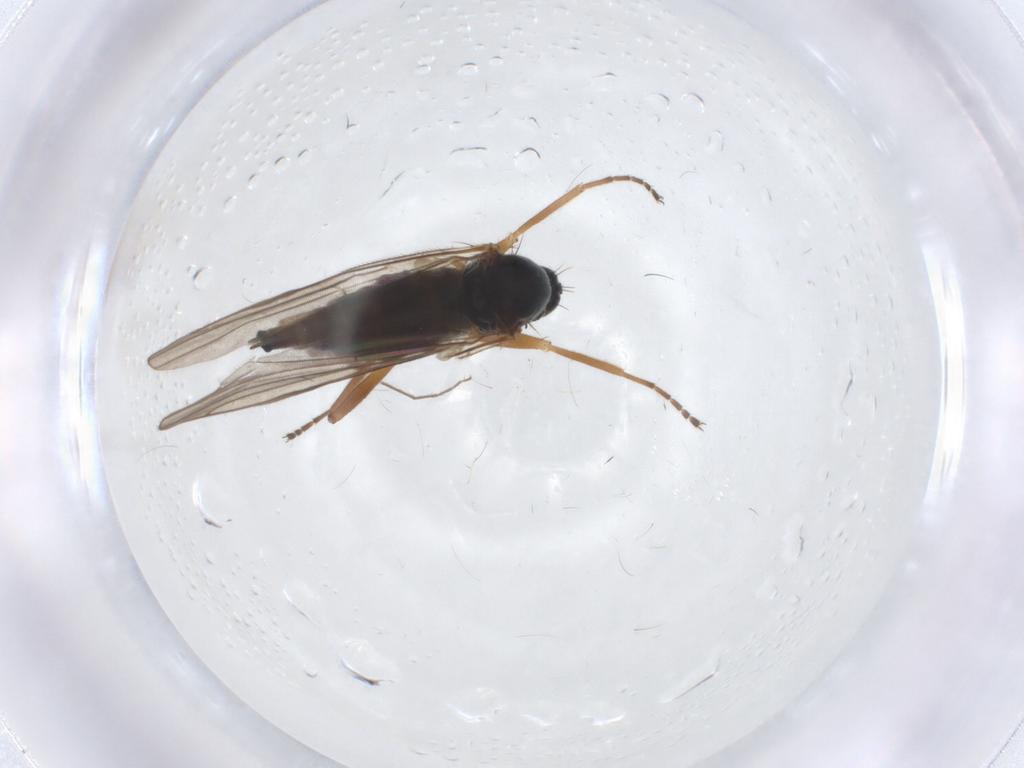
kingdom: Animalia
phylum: Arthropoda
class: Insecta
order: Diptera
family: Hybotidae
